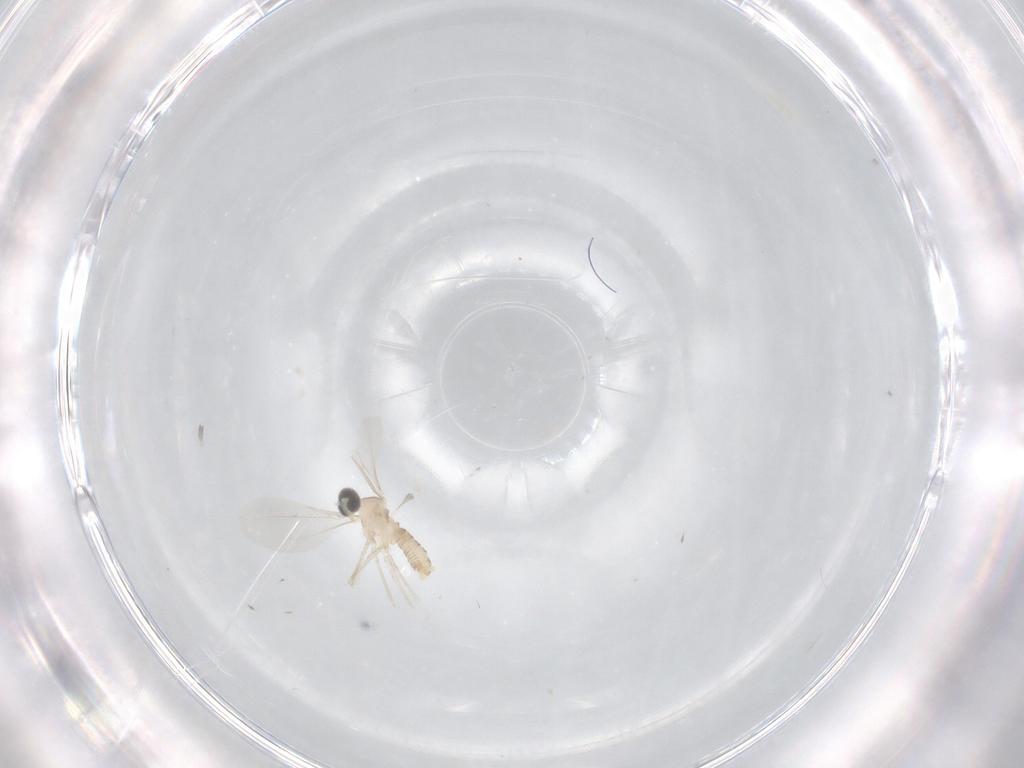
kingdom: Animalia
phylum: Arthropoda
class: Insecta
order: Diptera
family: Cecidomyiidae
